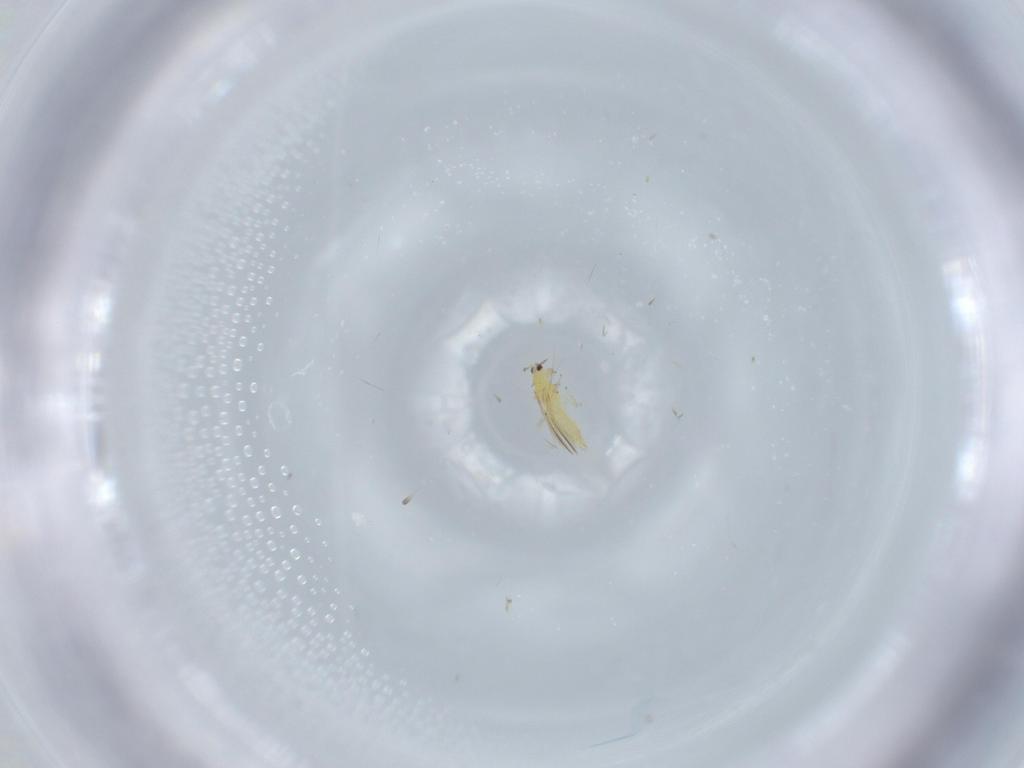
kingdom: Animalia
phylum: Arthropoda
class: Insecta
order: Thysanoptera
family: Thripidae
